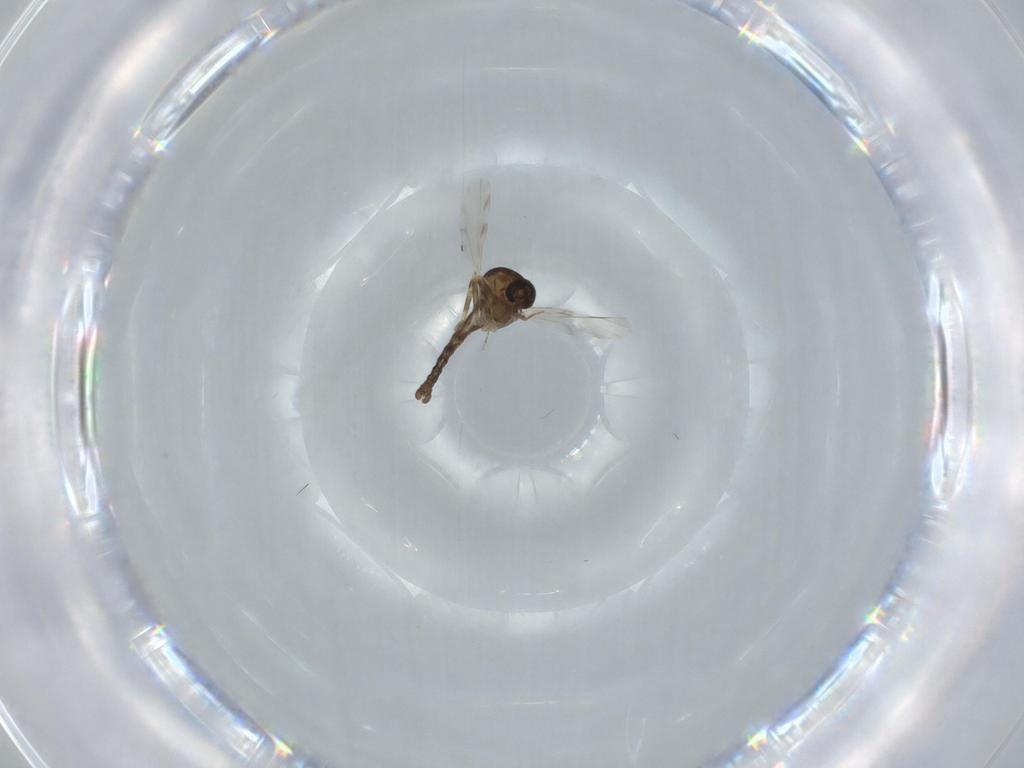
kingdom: Animalia
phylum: Arthropoda
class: Insecta
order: Diptera
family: Ceratopogonidae
